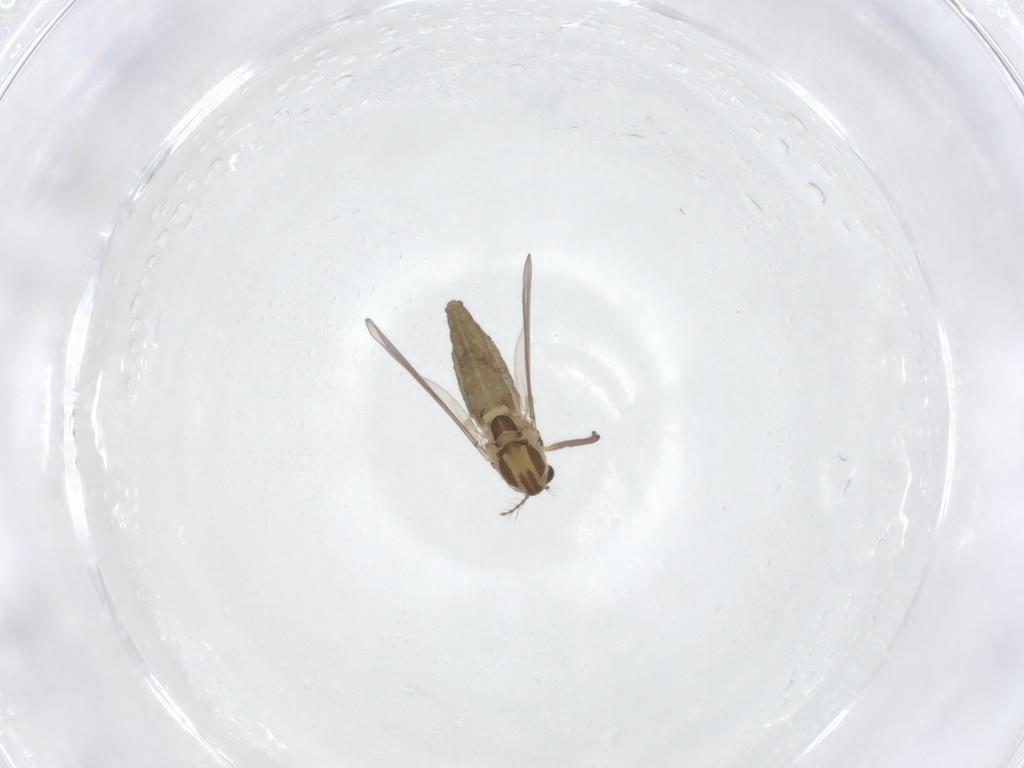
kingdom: Animalia
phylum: Arthropoda
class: Insecta
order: Diptera
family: Chironomidae
